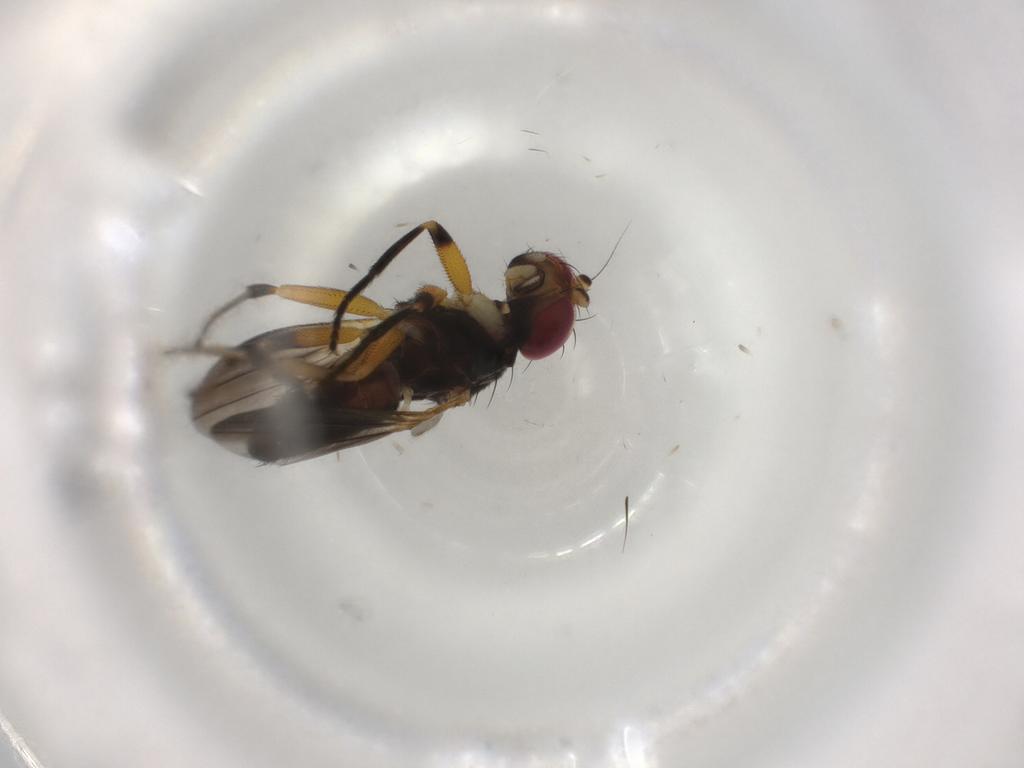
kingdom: Animalia
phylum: Arthropoda
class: Insecta
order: Diptera
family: Clusiidae
